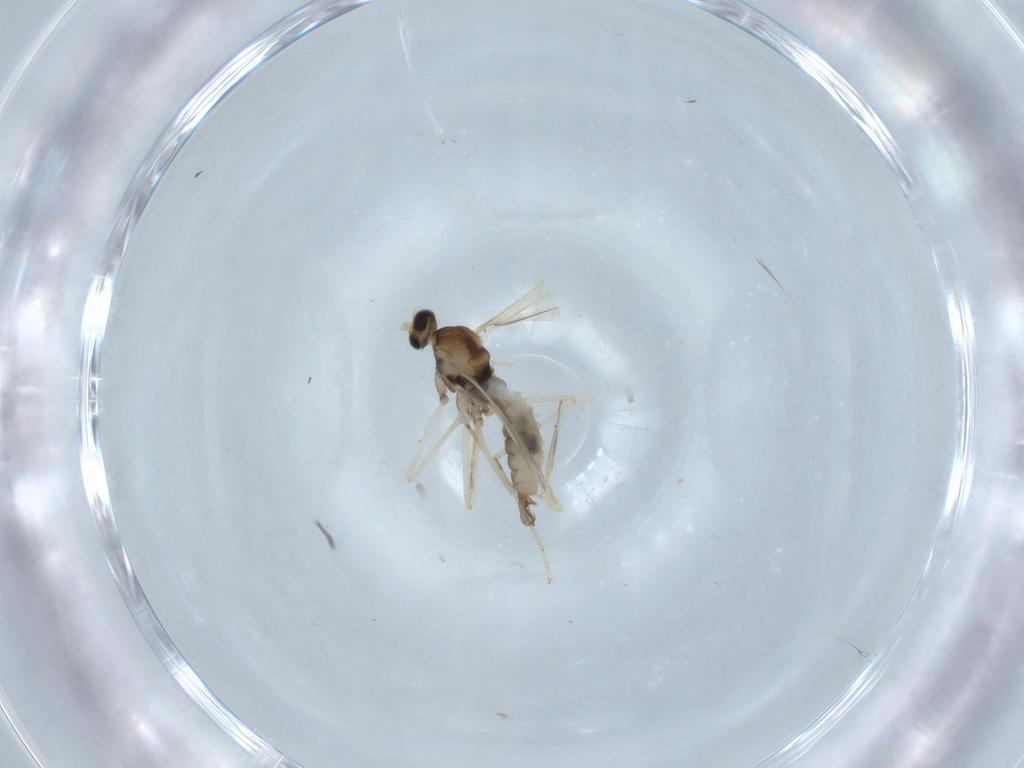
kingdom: Animalia
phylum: Arthropoda
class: Insecta
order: Diptera
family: Cecidomyiidae
